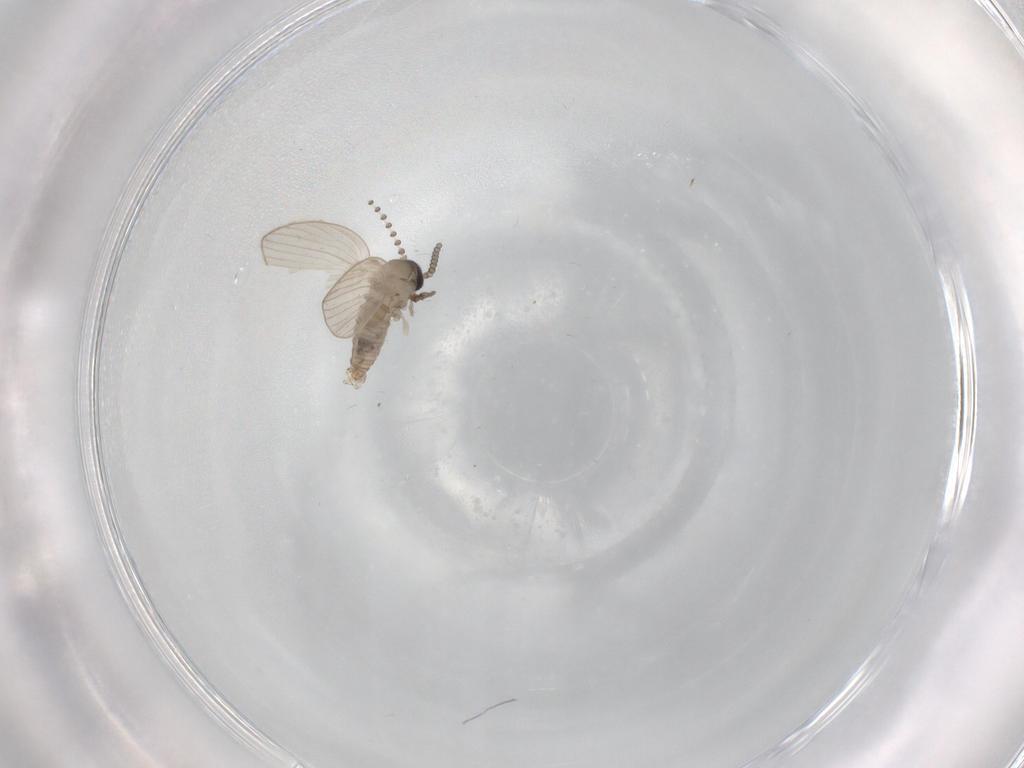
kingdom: Animalia
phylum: Arthropoda
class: Insecta
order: Diptera
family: Psychodidae
